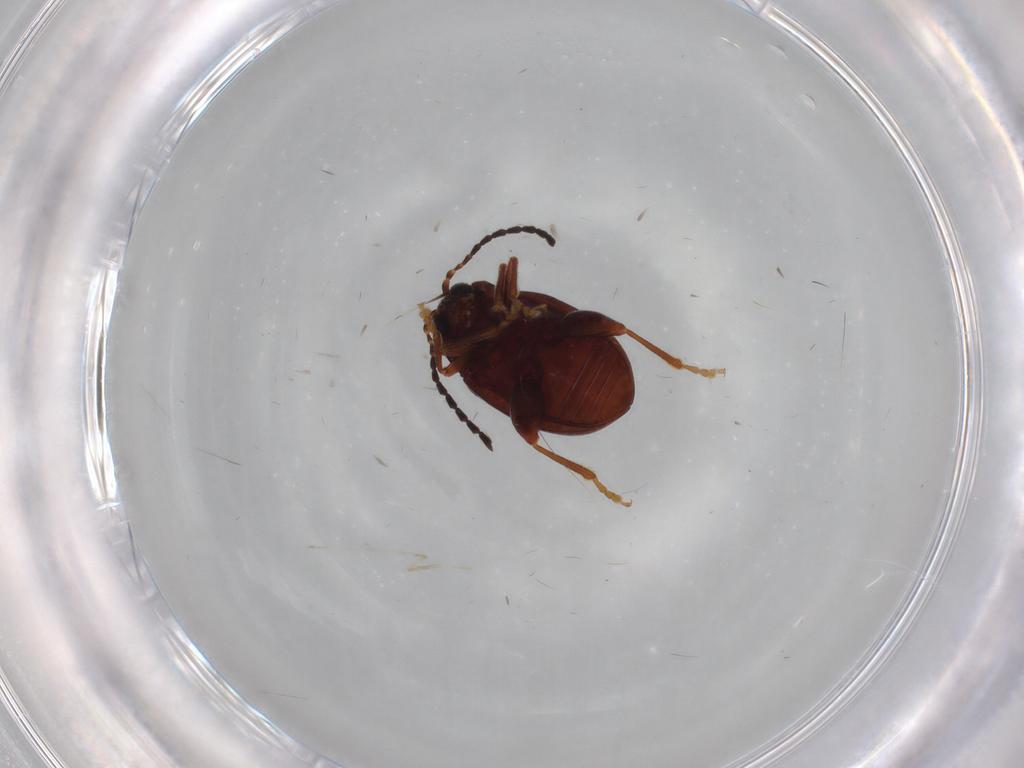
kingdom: Animalia
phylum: Arthropoda
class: Insecta
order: Coleoptera
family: Chrysomelidae
